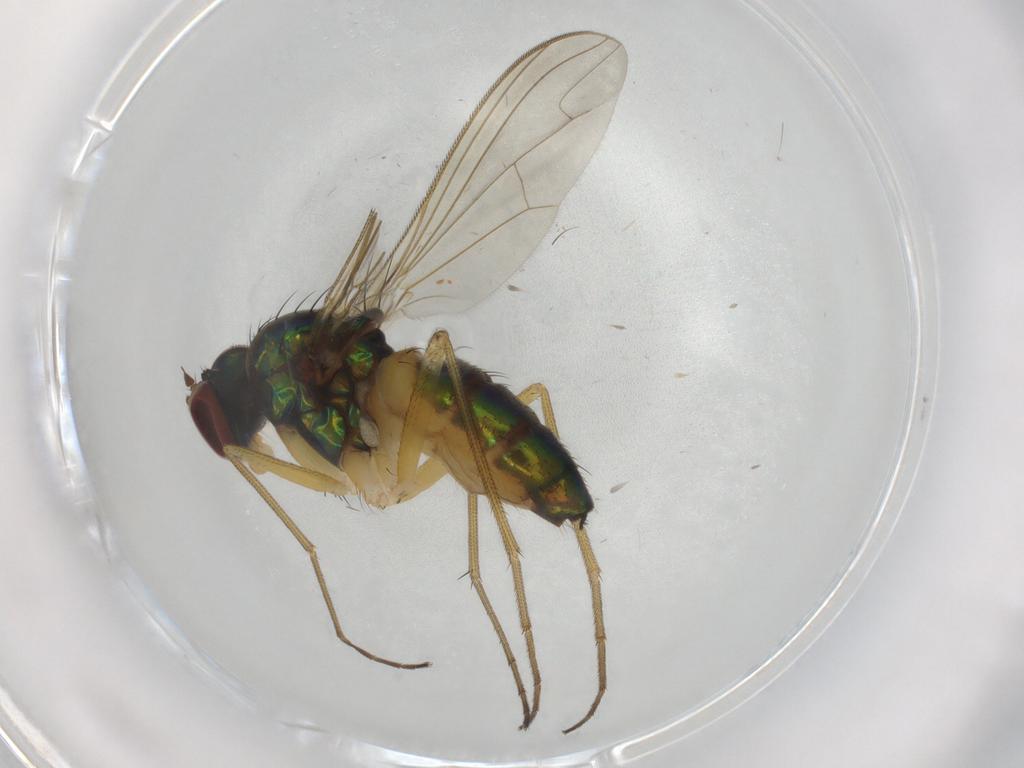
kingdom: Animalia
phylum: Arthropoda
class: Insecta
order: Diptera
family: Dolichopodidae
